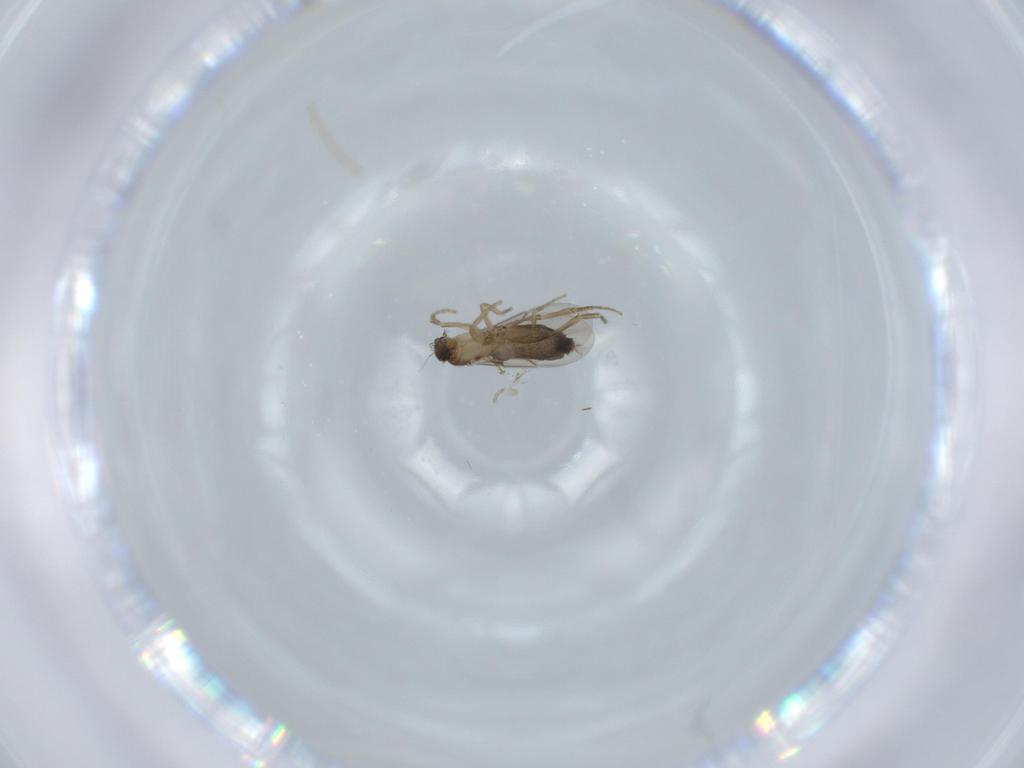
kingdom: Animalia
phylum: Arthropoda
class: Insecta
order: Diptera
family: Phoridae
